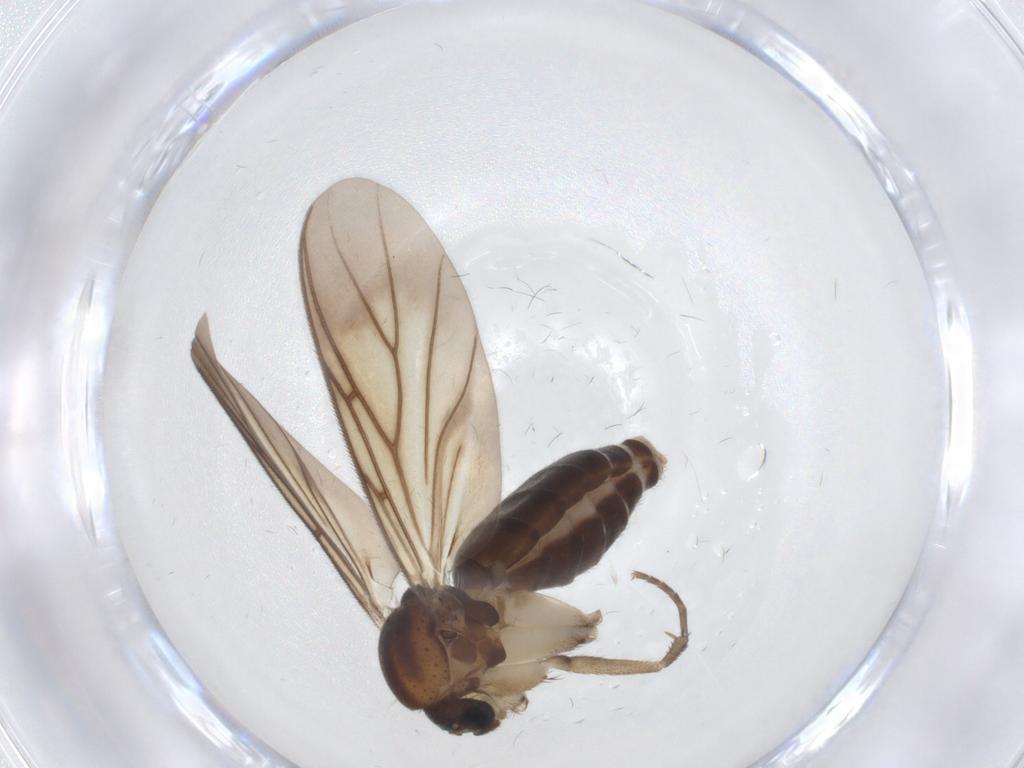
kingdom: Animalia
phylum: Arthropoda
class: Insecta
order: Diptera
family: Mycetophilidae
